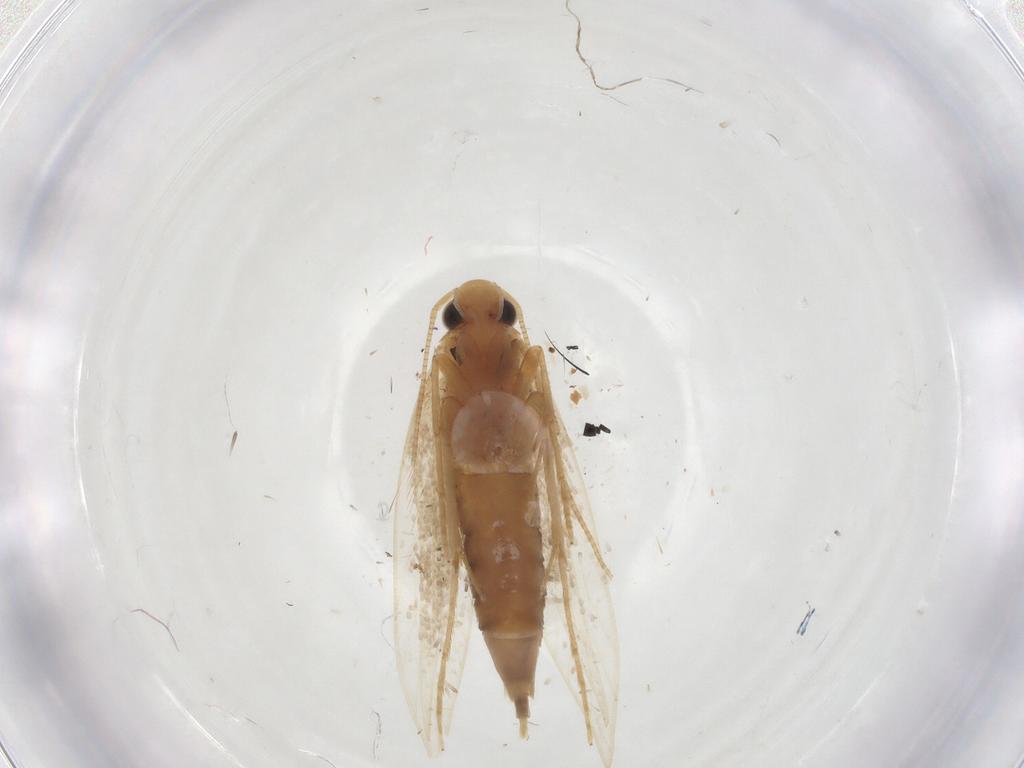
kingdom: Animalia
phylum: Arthropoda
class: Insecta
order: Lepidoptera
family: Tineidae
